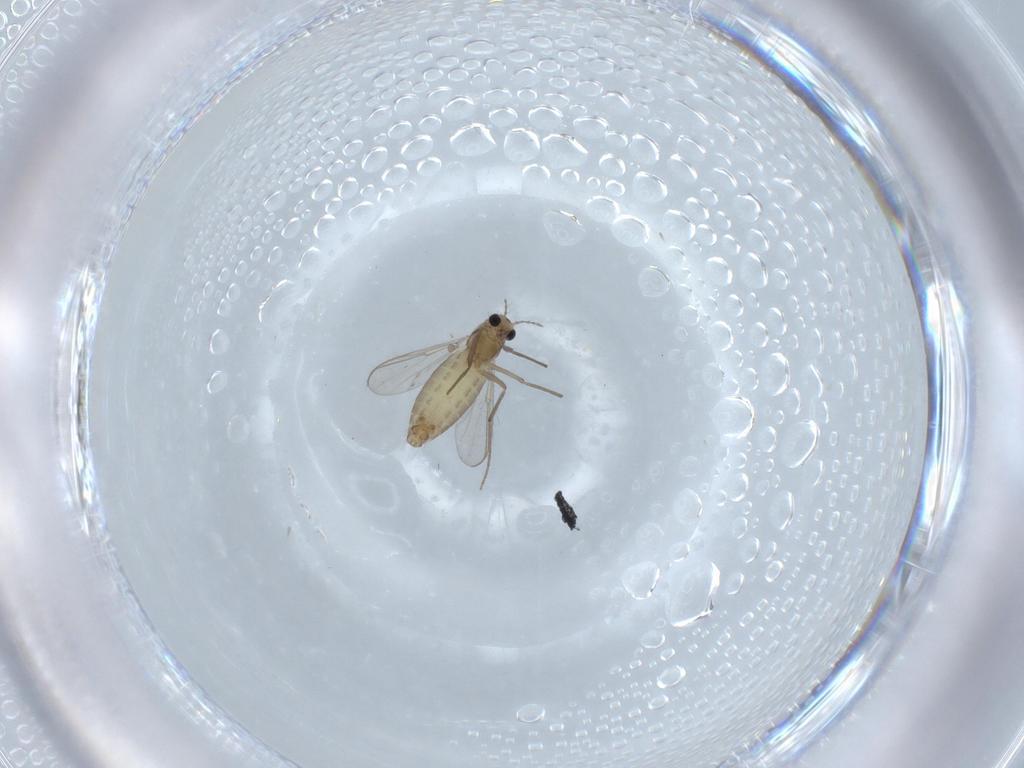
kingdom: Animalia
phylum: Arthropoda
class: Insecta
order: Diptera
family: Chironomidae
